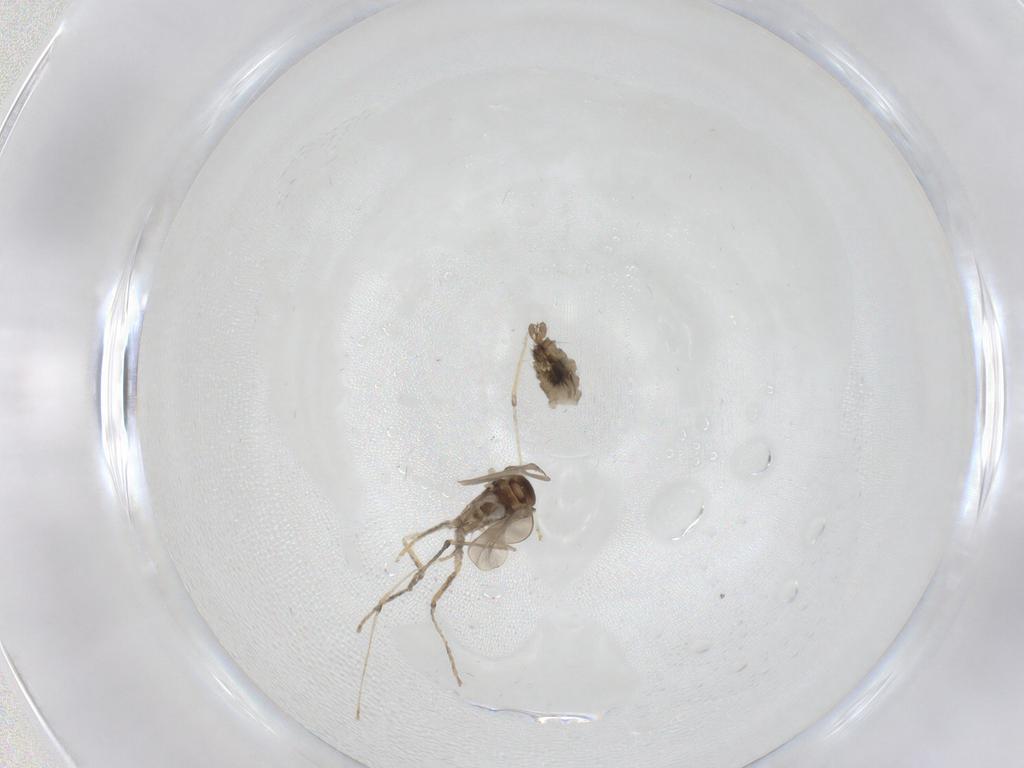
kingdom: Animalia
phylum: Arthropoda
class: Insecta
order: Diptera
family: Cecidomyiidae
